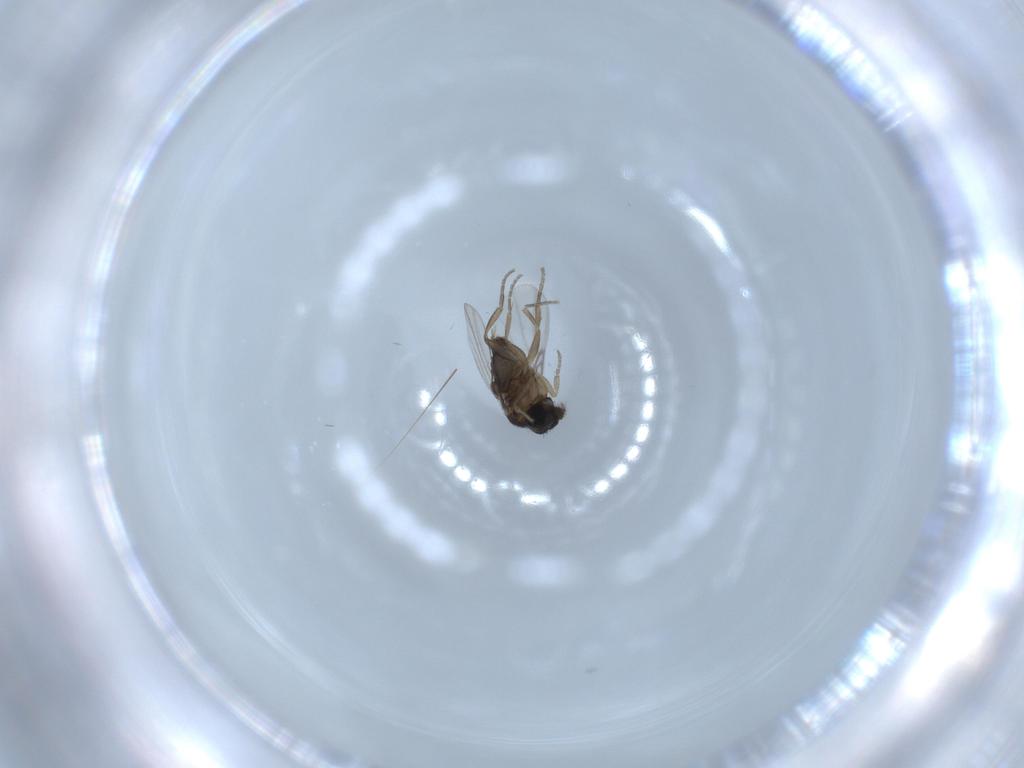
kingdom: Animalia
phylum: Arthropoda
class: Insecta
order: Diptera
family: Phoridae
